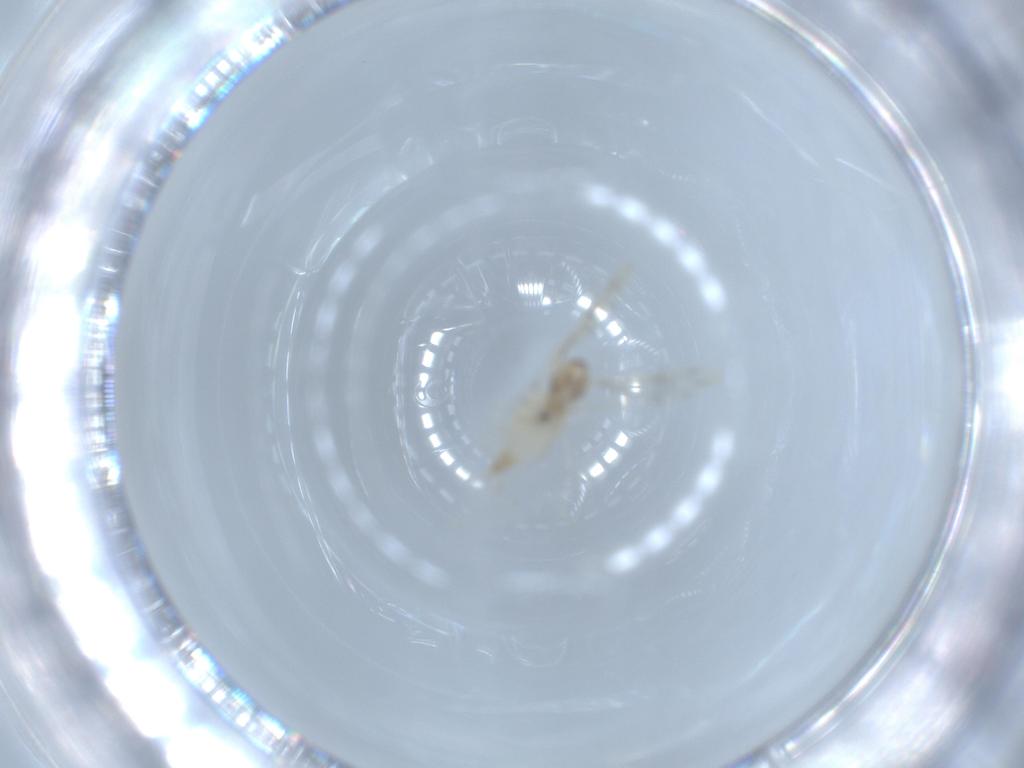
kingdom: Animalia
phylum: Arthropoda
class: Insecta
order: Diptera
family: Cecidomyiidae
